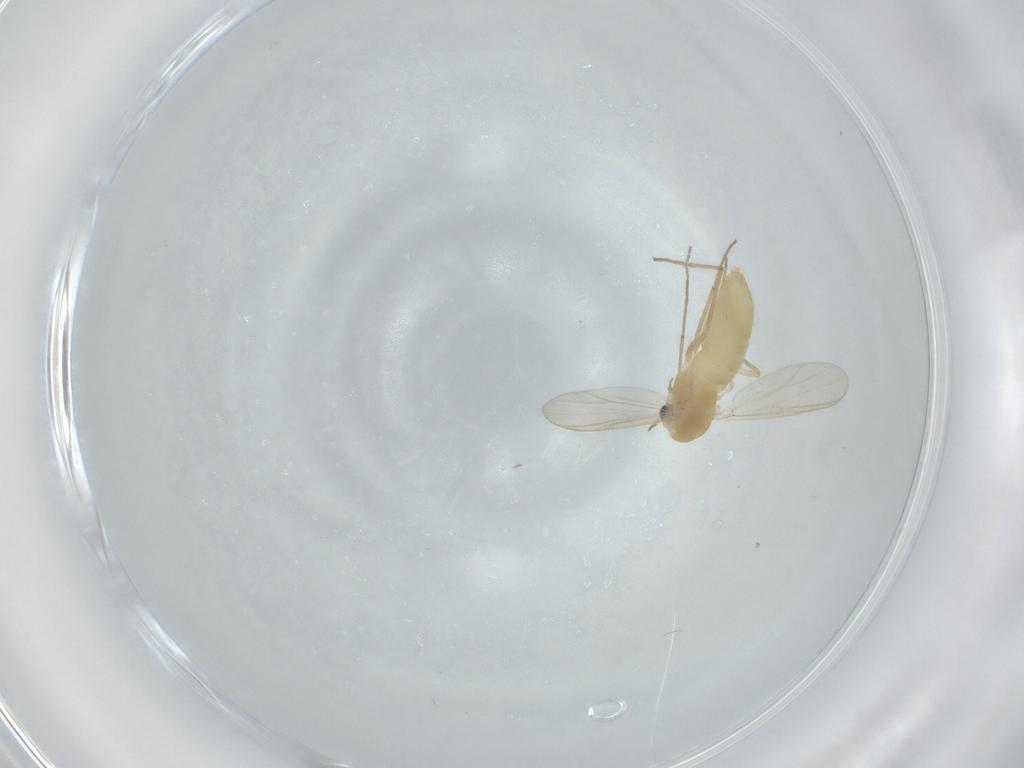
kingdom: Animalia
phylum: Arthropoda
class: Insecta
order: Diptera
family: Chironomidae
